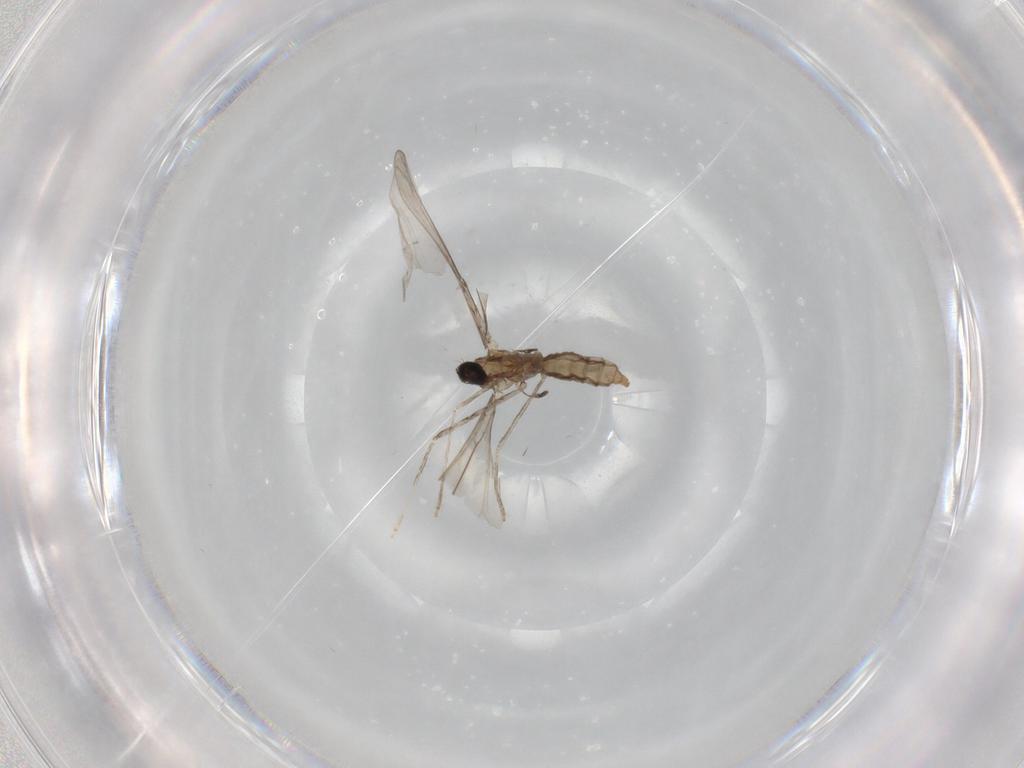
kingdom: Animalia
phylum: Arthropoda
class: Insecta
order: Diptera
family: Cecidomyiidae
